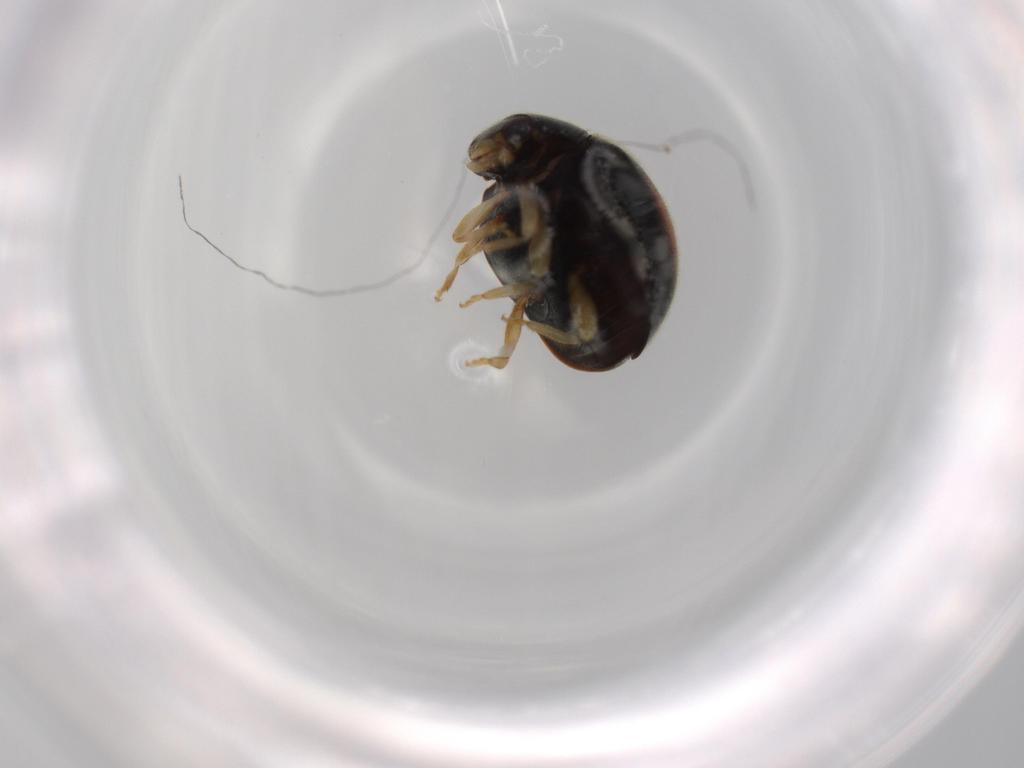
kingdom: Animalia
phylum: Arthropoda
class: Insecta
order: Coleoptera
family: Coccinellidae
